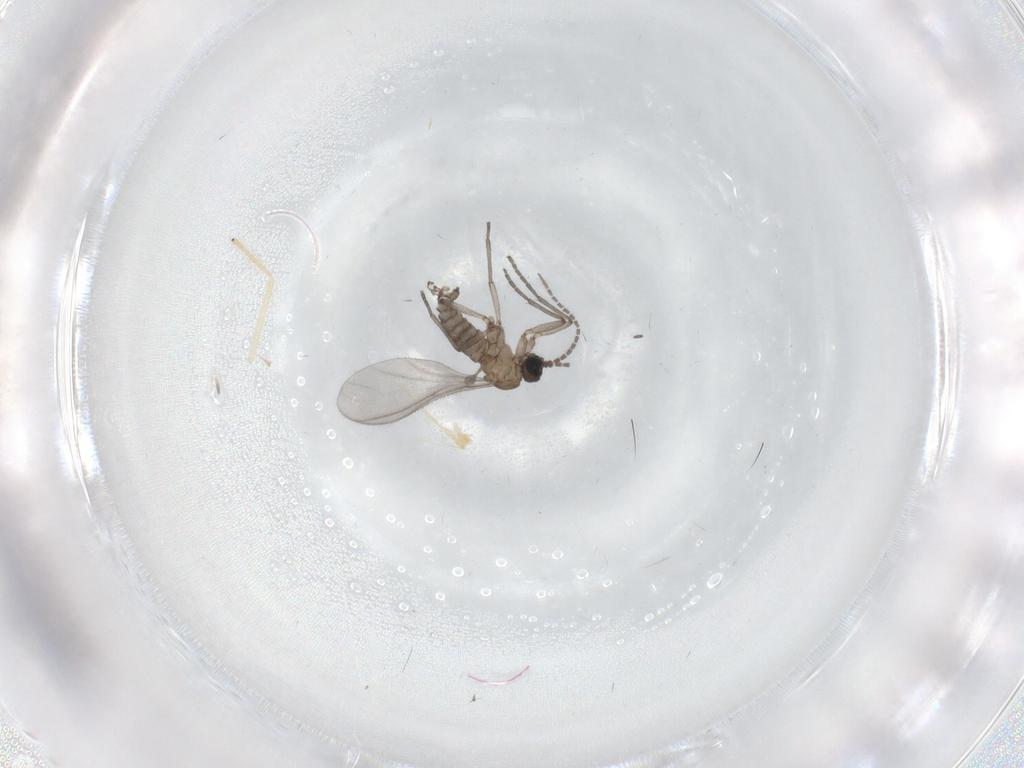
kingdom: Animalia
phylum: Arthropoda
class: Insecta
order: Diptera
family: Sciaridae
